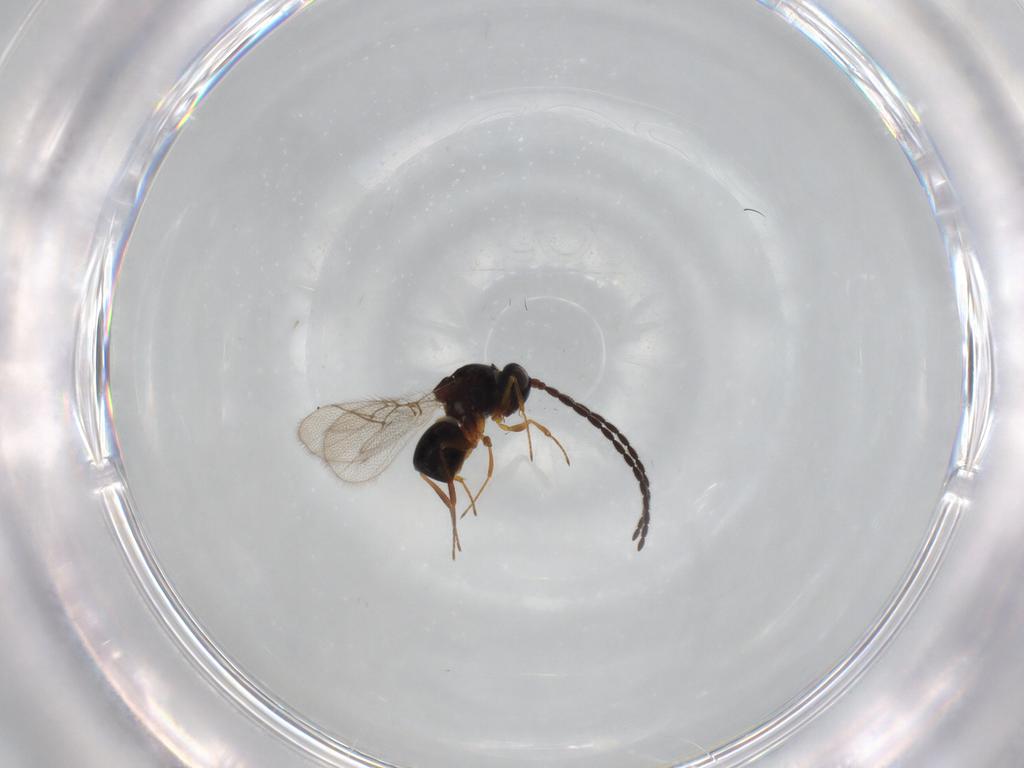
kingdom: Animalia
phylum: Arthropoda
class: Insecta
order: Hymenoptera
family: Figitidae
